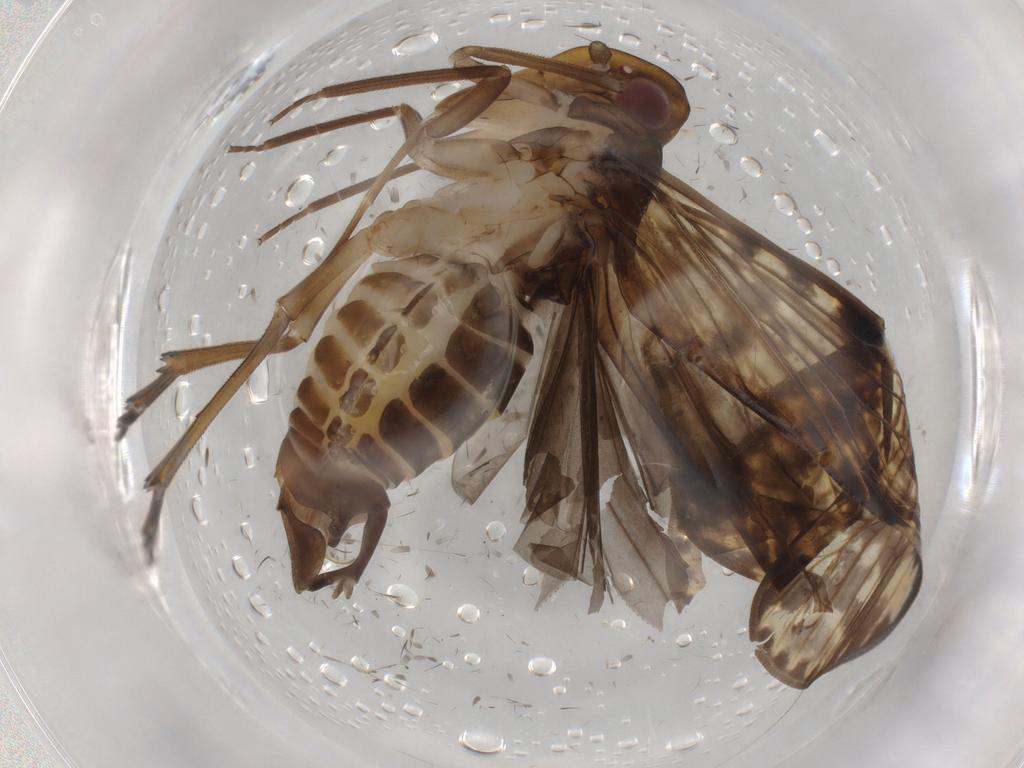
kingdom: Animalia
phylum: Arthropoda
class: Insecta
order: Hemiptera
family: Cicadellidae
